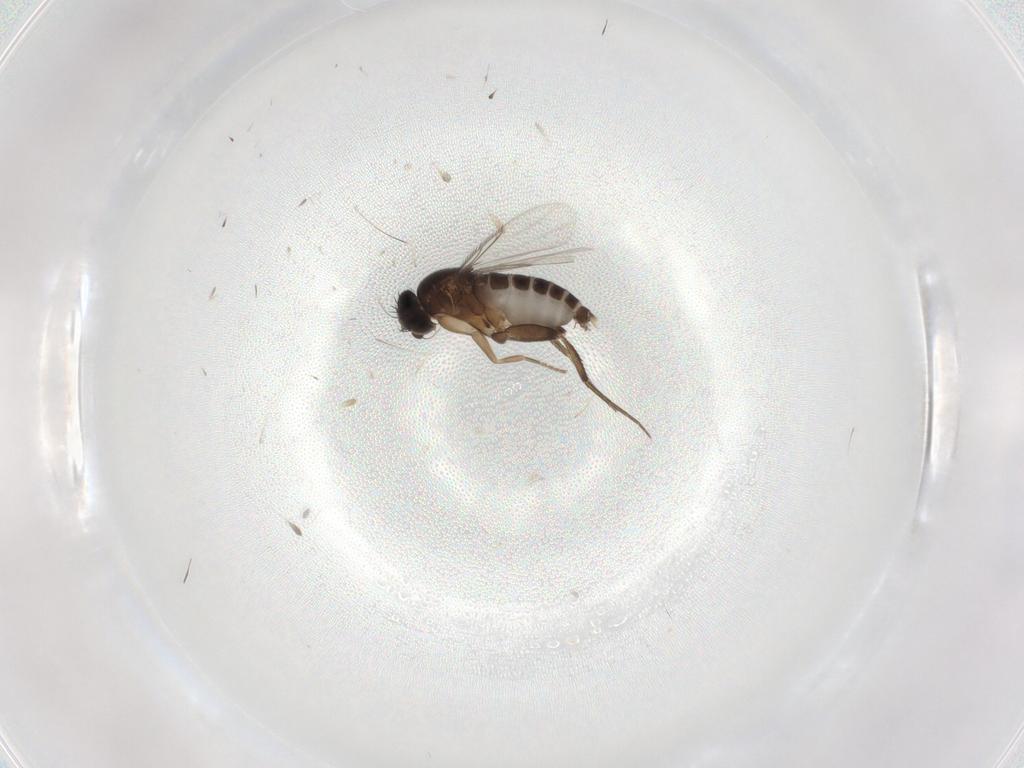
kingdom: Animalia
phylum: Arthropoda
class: Insecta
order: Diptera
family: Phoridae
